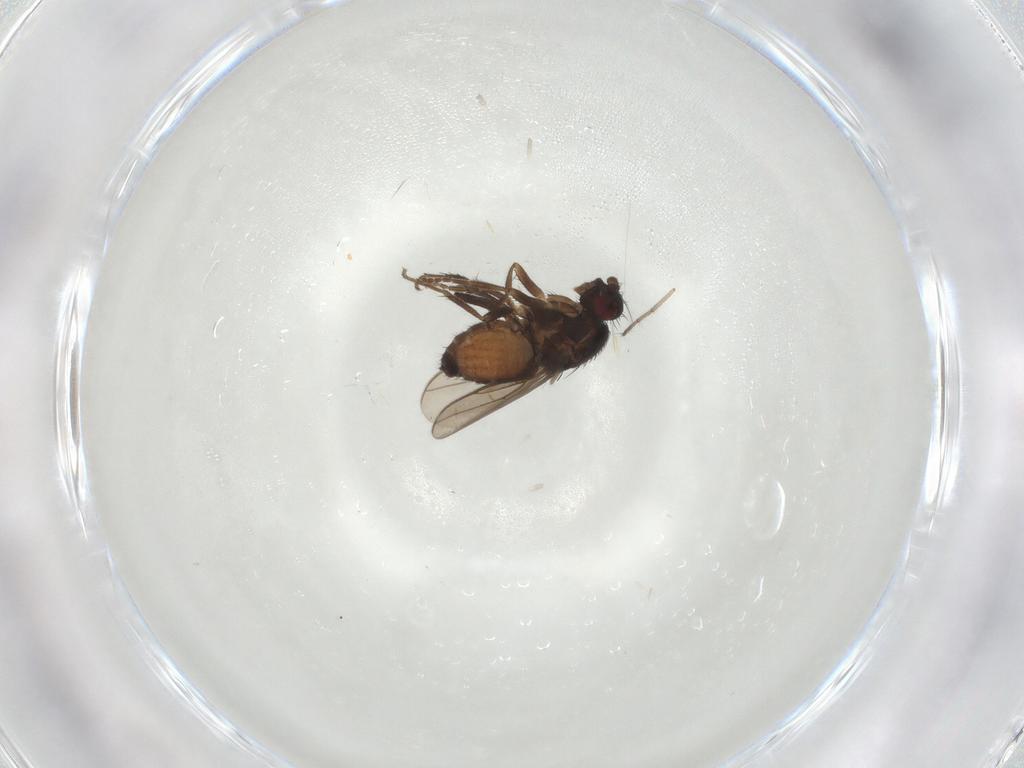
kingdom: Animalia
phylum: Arthropoda
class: Insecta
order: Diptera
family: Sphaeroceridae
